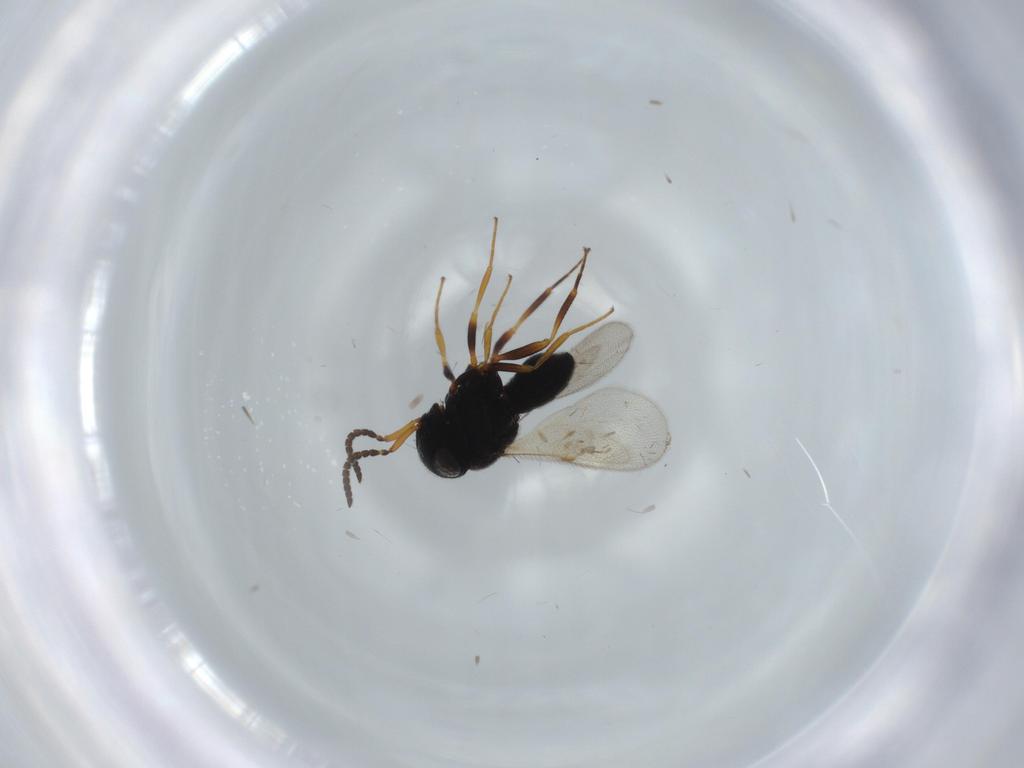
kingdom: Animalia
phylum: Arthropoda
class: Insecta
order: Hymenoptera
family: Scelionidae
